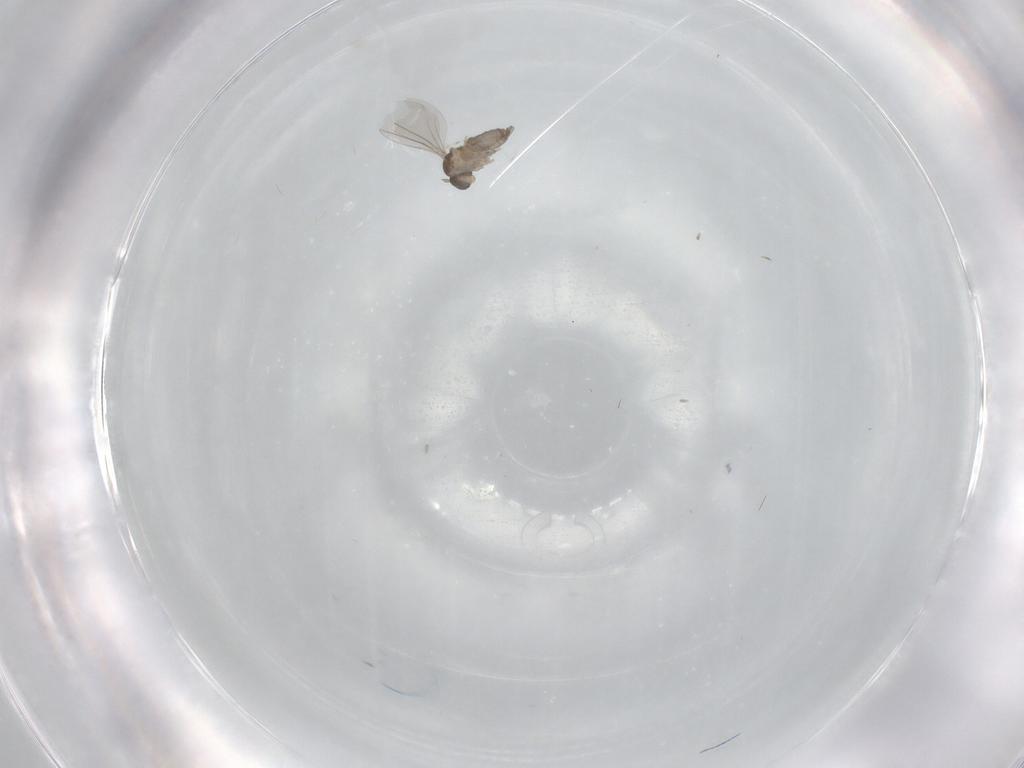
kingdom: Animalia
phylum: Arthropoda
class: Insecta
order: Diptera
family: Cecidomyiidae
